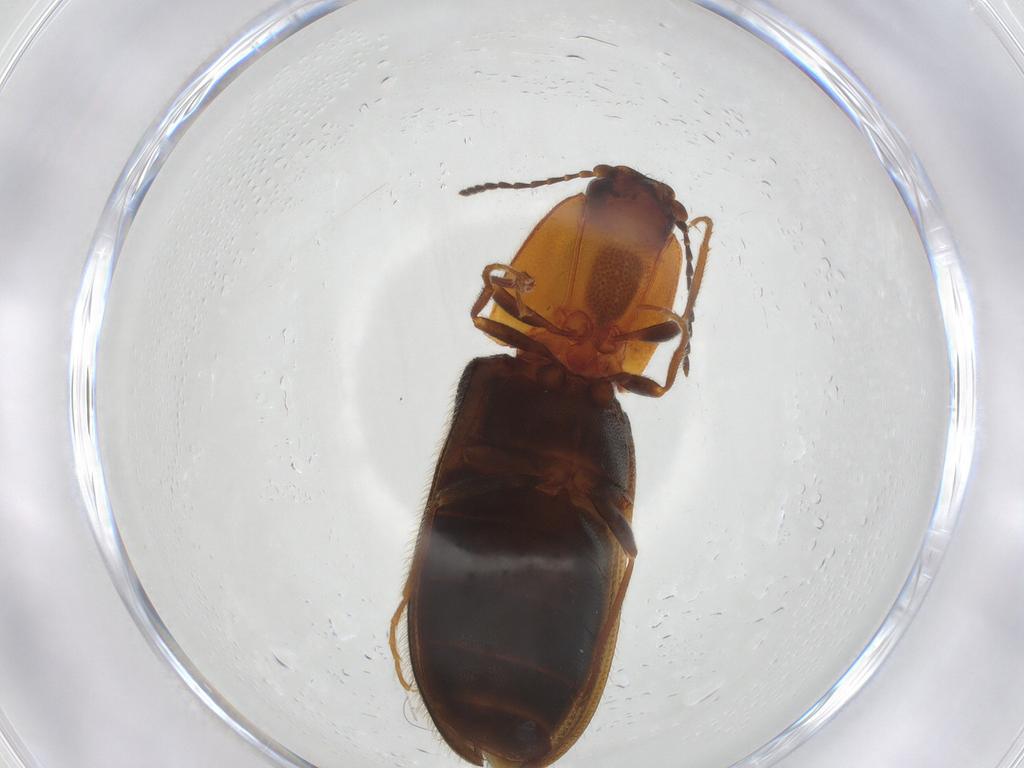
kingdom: Animalia
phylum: Arthropoda
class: Insecta
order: Coleoptera
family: Elateridae
